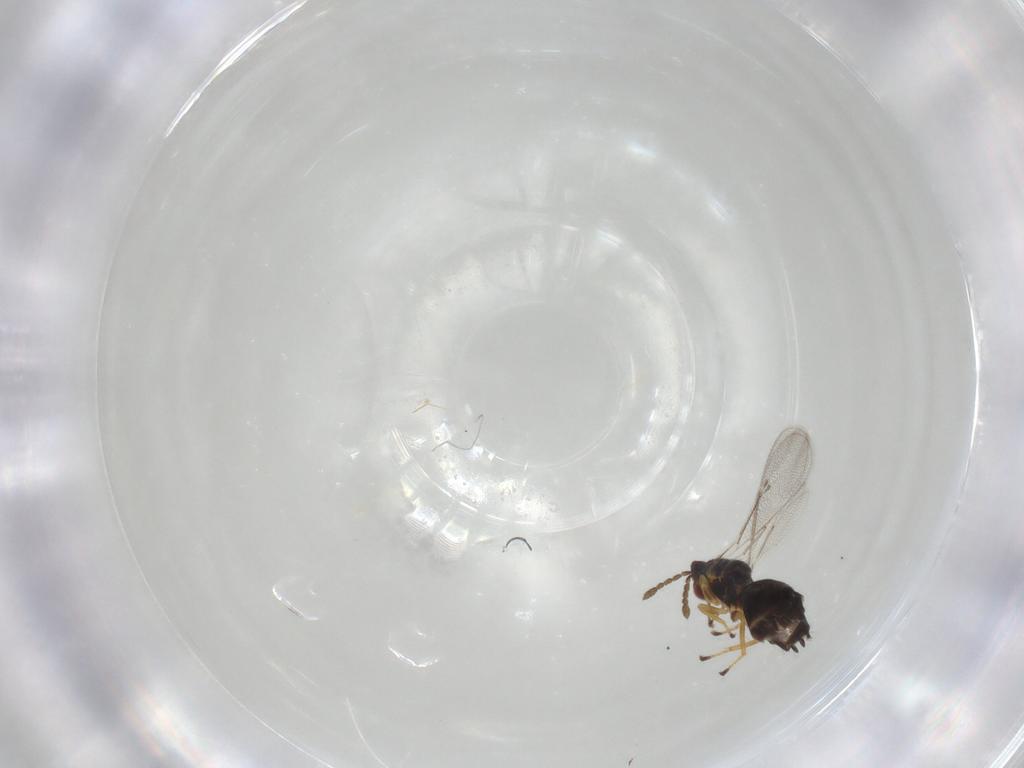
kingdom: Animalia
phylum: Arthropoda
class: Insecta
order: Hymenoptera
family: Eulophidae
